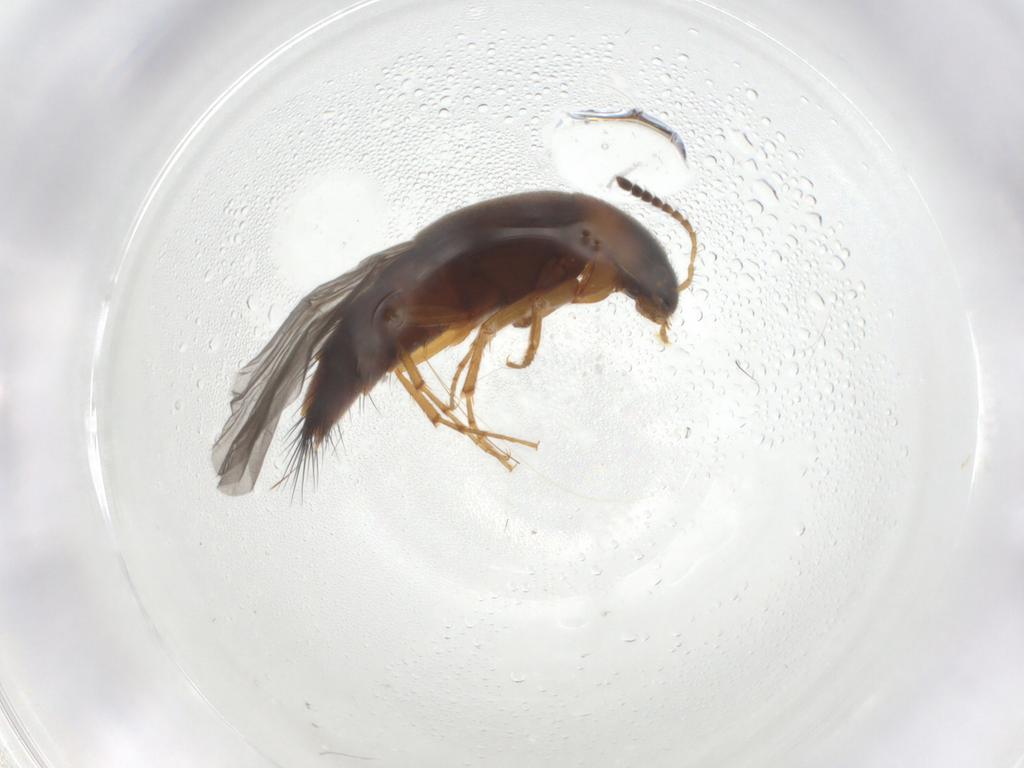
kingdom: Animalia
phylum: Arthropoda
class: Insecta
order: Coleoptera
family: Staphylinidae
